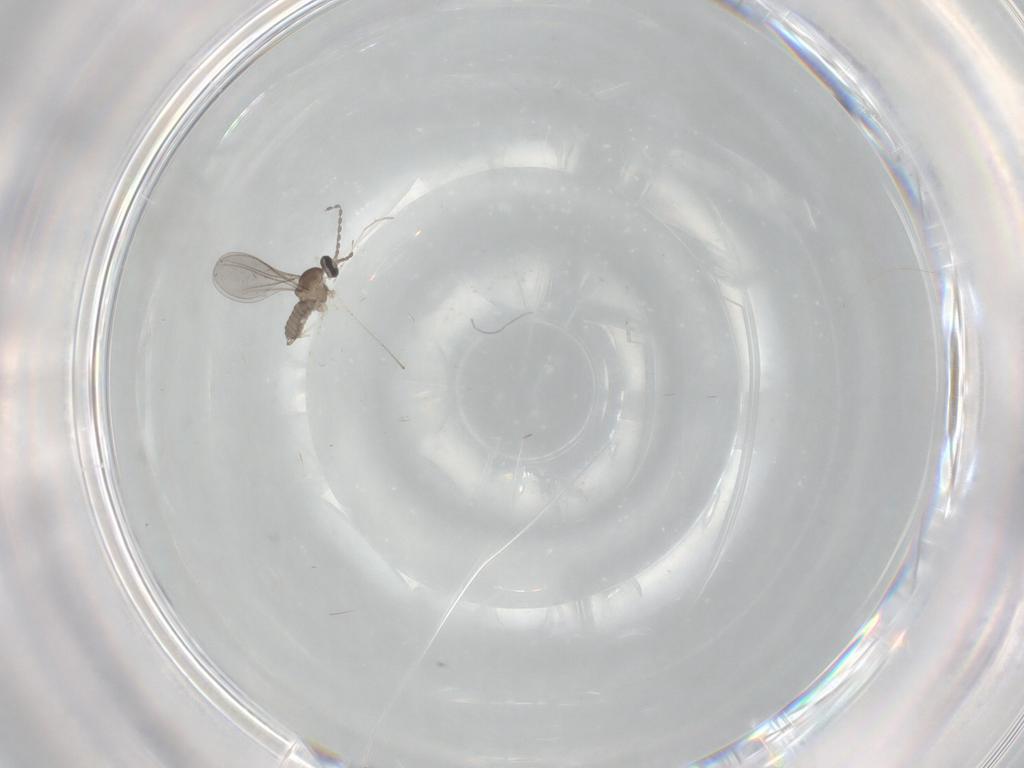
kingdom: Animalia
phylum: Arthropoda
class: Insecta
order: Diptera
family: Cecidomyiidae
